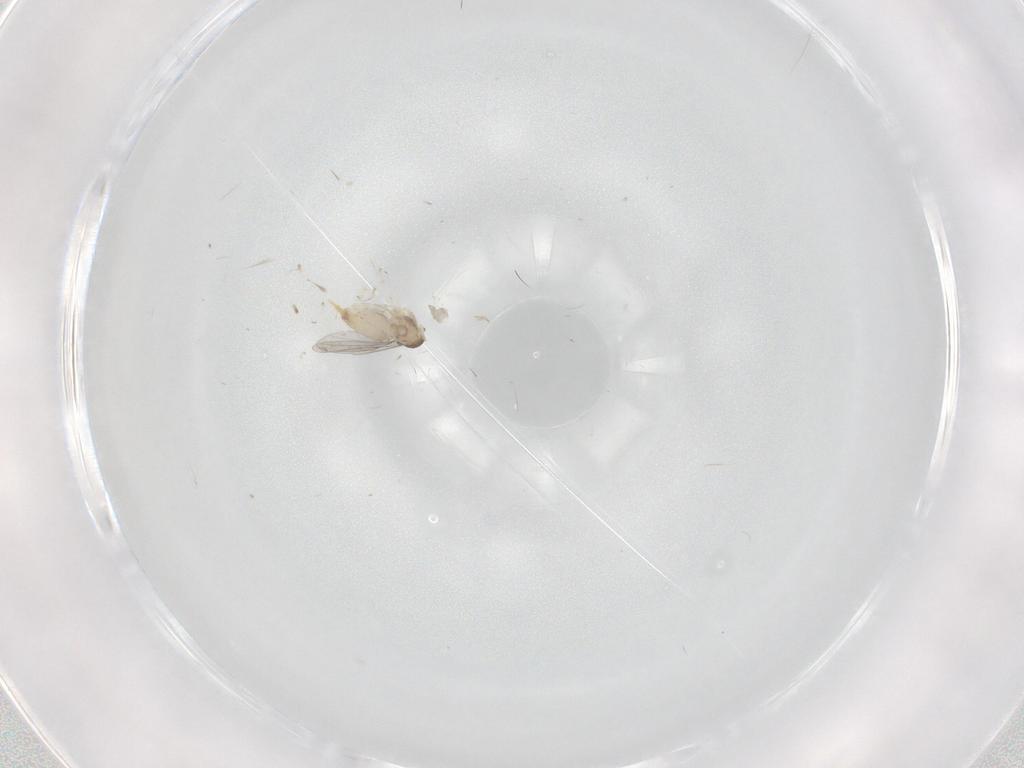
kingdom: Animalia
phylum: Arthropoda
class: Insecta
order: Diptera
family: Cecidomyiidae
